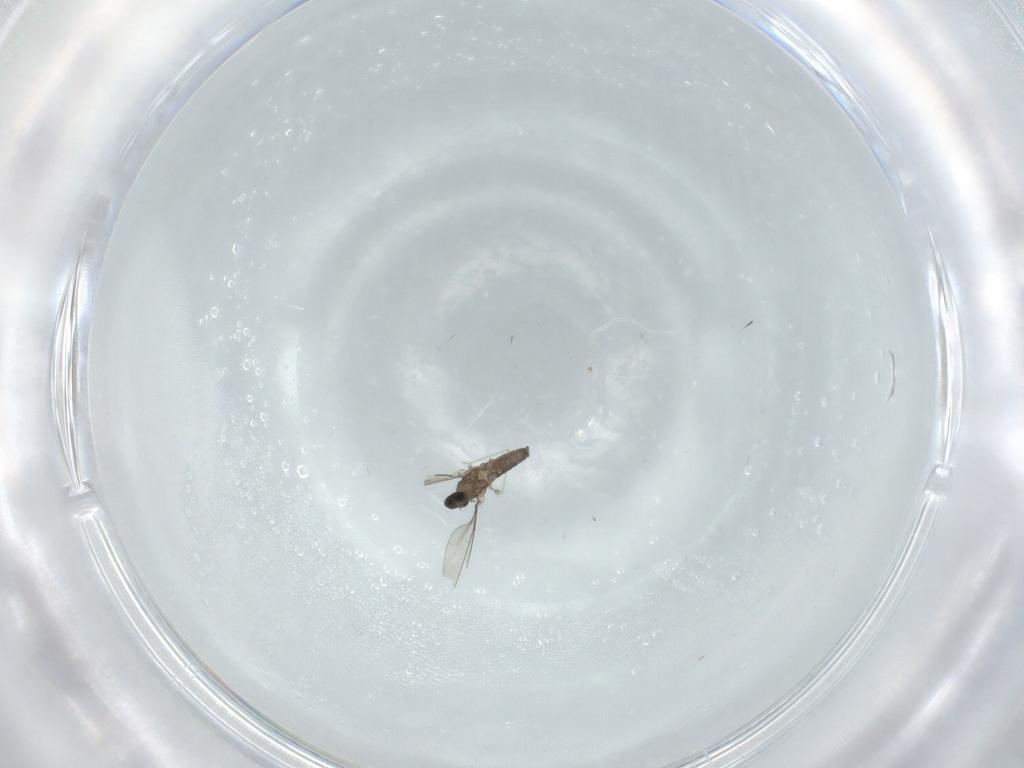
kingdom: Animalia
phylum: Arthropoda
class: Insecta
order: Diptera
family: Cecidomyiidae
